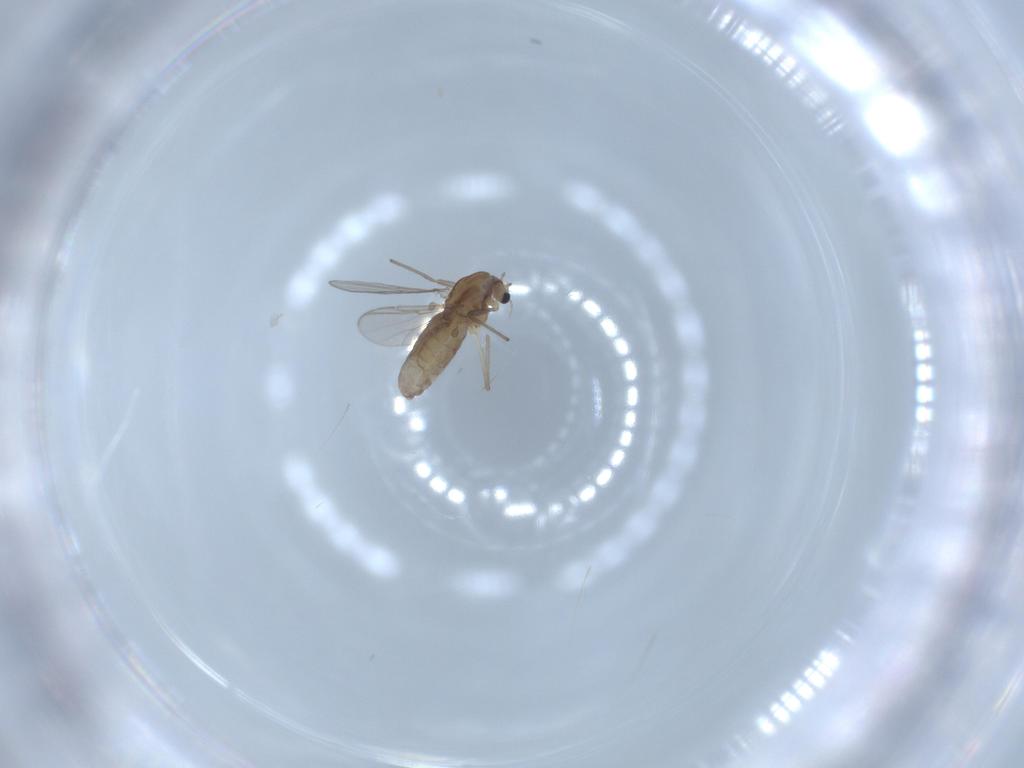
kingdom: Animalia
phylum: Arthropoda
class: Insecta
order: Diptera
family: Chironomidae
